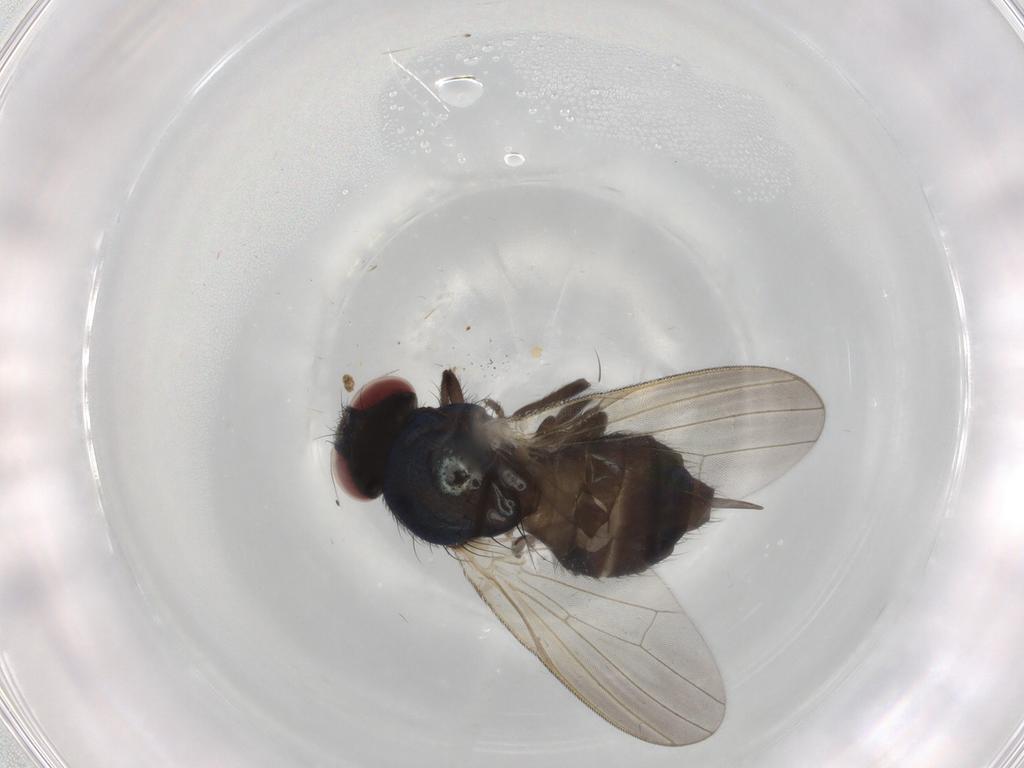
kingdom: Animalia
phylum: Arthropoda
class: Insecta
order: Diptera
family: Lonchaeidae
